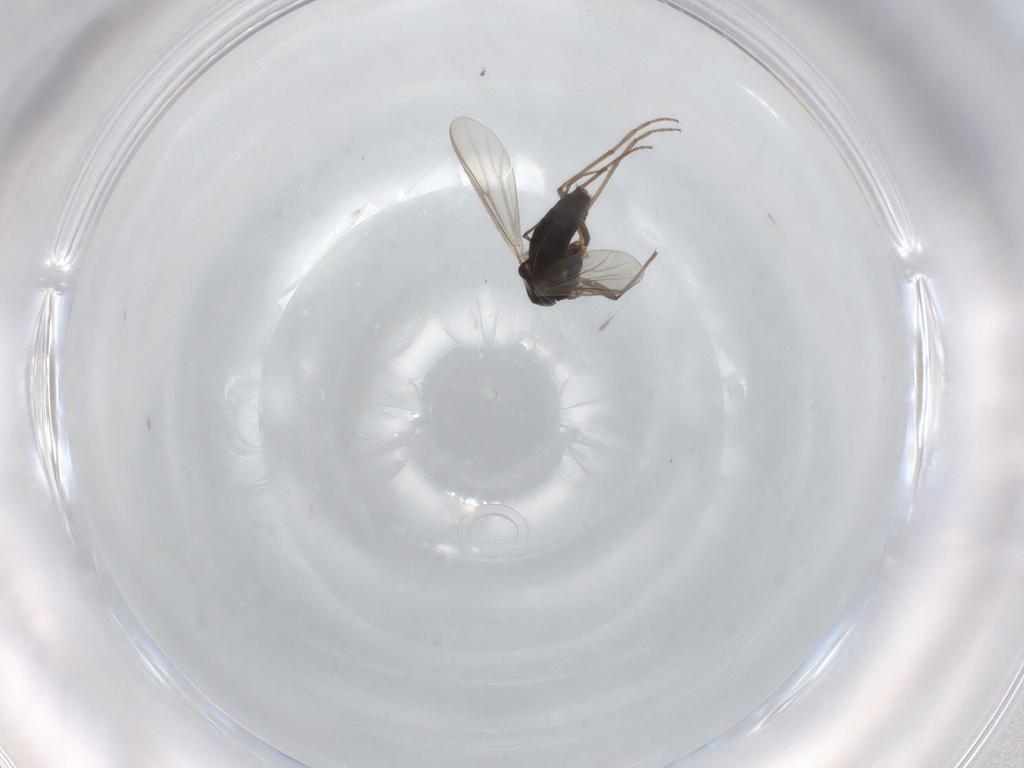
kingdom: Animalia
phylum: Arthropoda
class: Insecta
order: Diptera
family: Chironomidae
